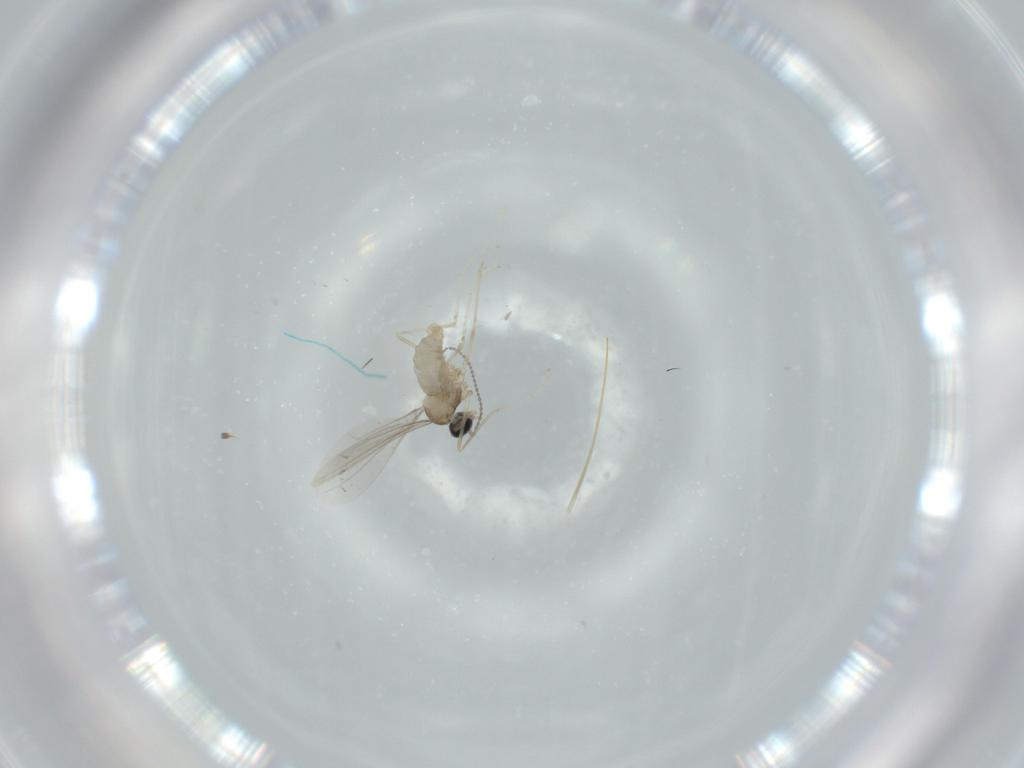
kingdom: Animalia
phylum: Arthropoda
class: Insecta
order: Diptera
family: Cecidomyiidae
